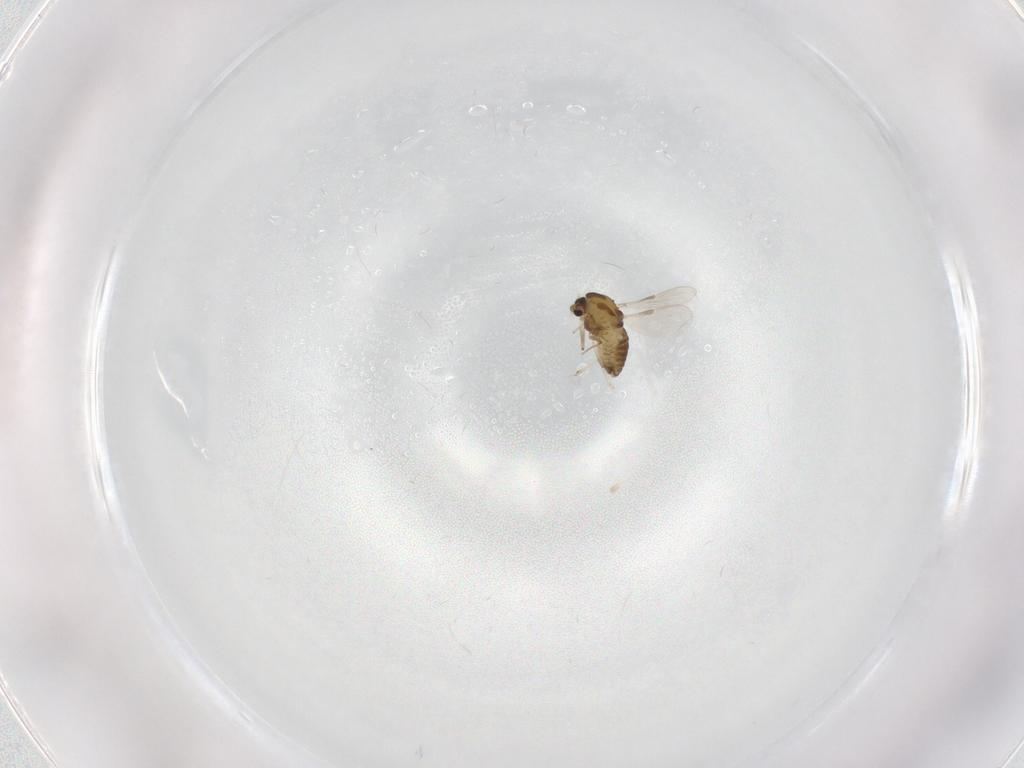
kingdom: Animalia
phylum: Arthropoda
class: Insecta
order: Diptera
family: Chironomidae
